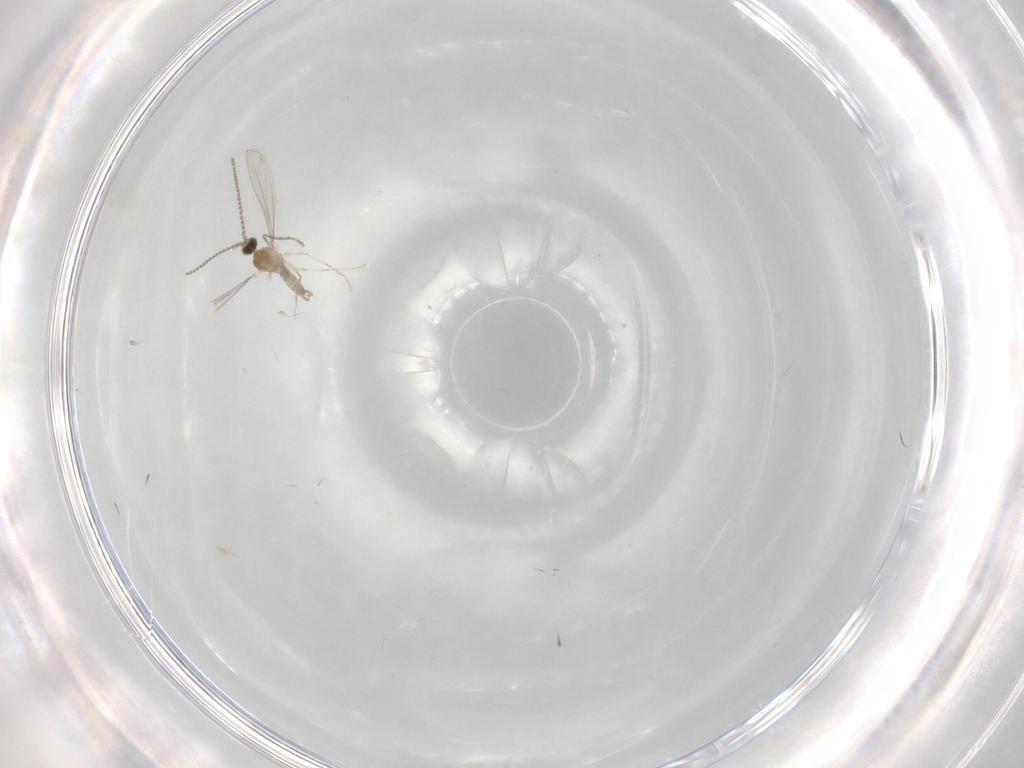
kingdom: Animalia
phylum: Arthropoda
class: Insecta
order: Diptera
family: Cecidomyiidae
